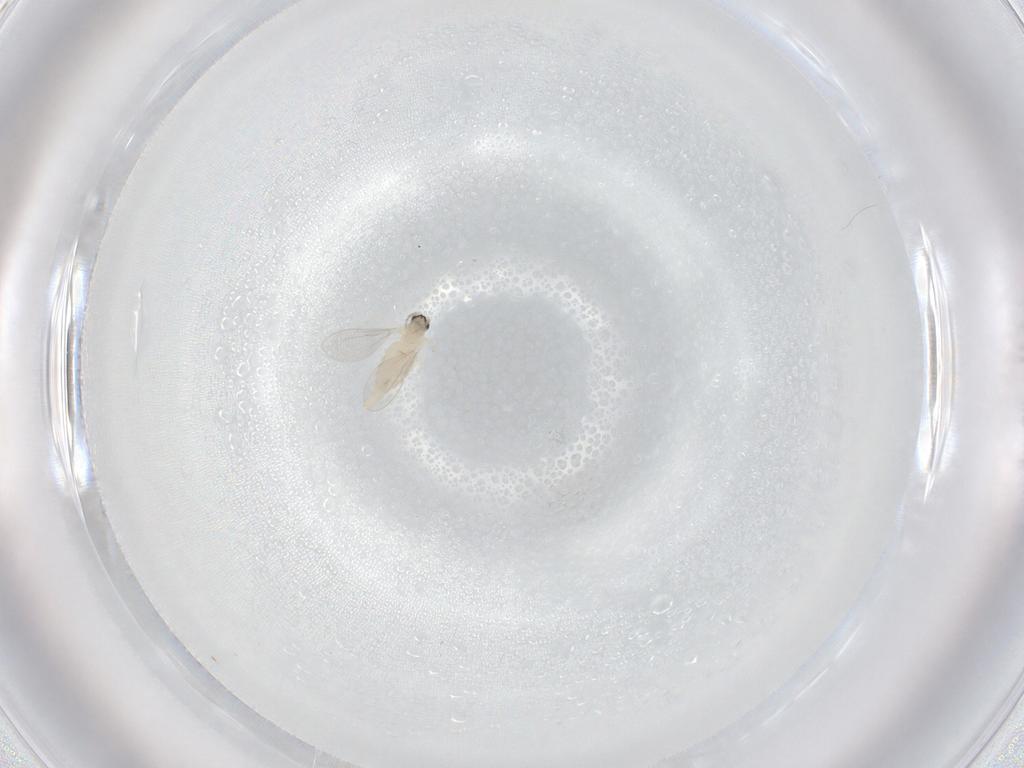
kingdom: Animalia
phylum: Arthropoda
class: Insecta
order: Diptera
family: Cecidomyiidae
